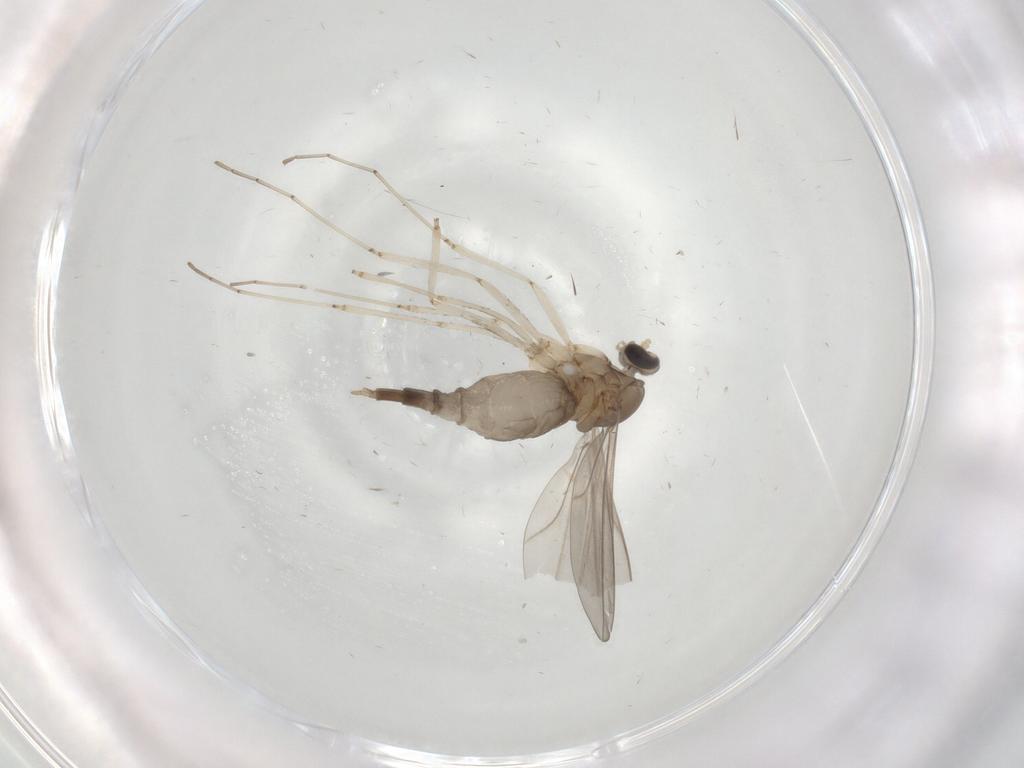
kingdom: Animalia
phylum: Arthropoda
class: Insecta
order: Diptera
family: Cecidomyiidae
